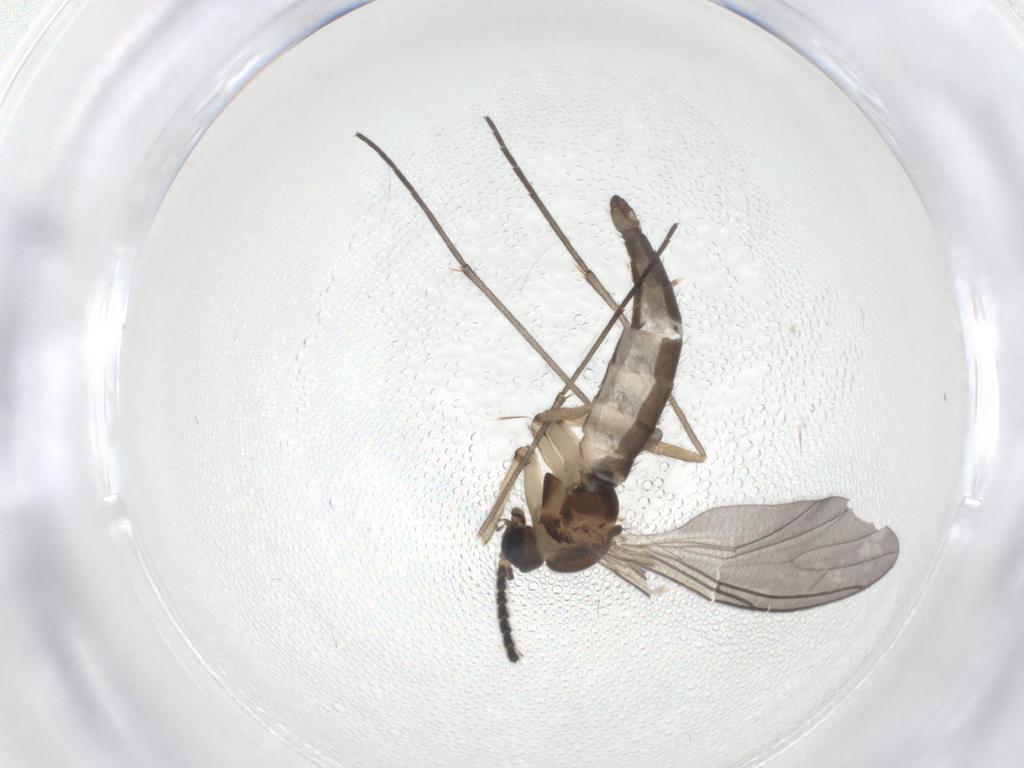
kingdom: Animalia
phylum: Arthropoda
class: Insecta
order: Diptera
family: Sciaridae
